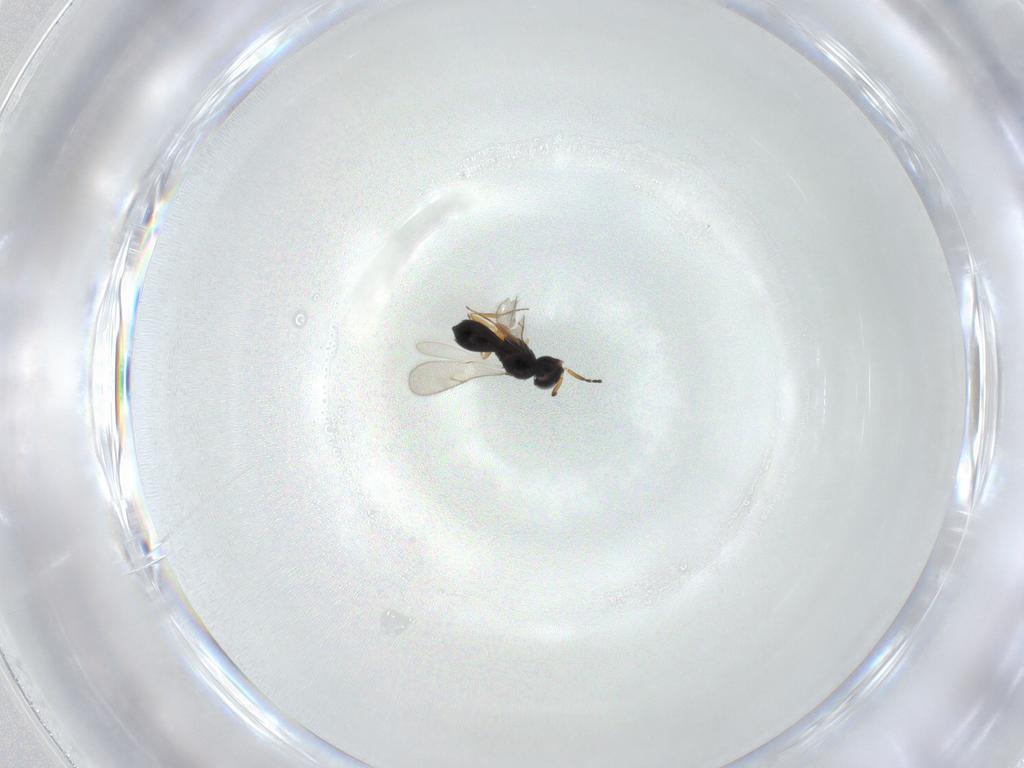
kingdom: Animalia
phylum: Arthropoda
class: Insecta
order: Hymenoptera
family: Scelionidae
